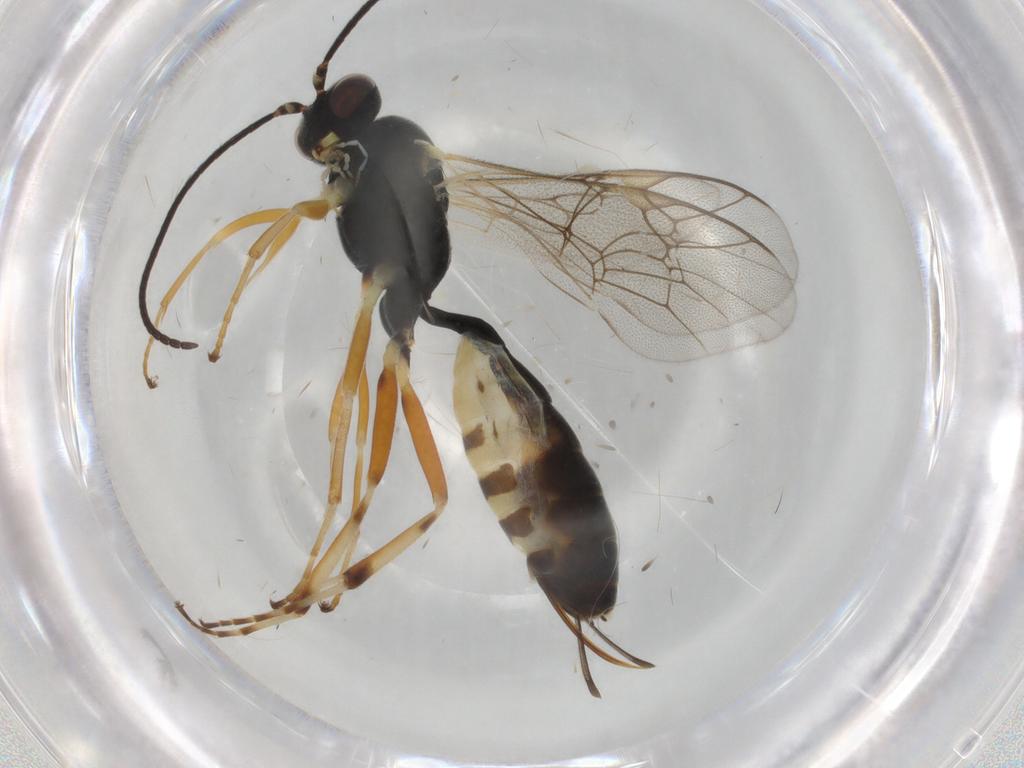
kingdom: Animalia
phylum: Arthropoda
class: Insecta
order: Hymenoptera
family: Ichneumonidae
